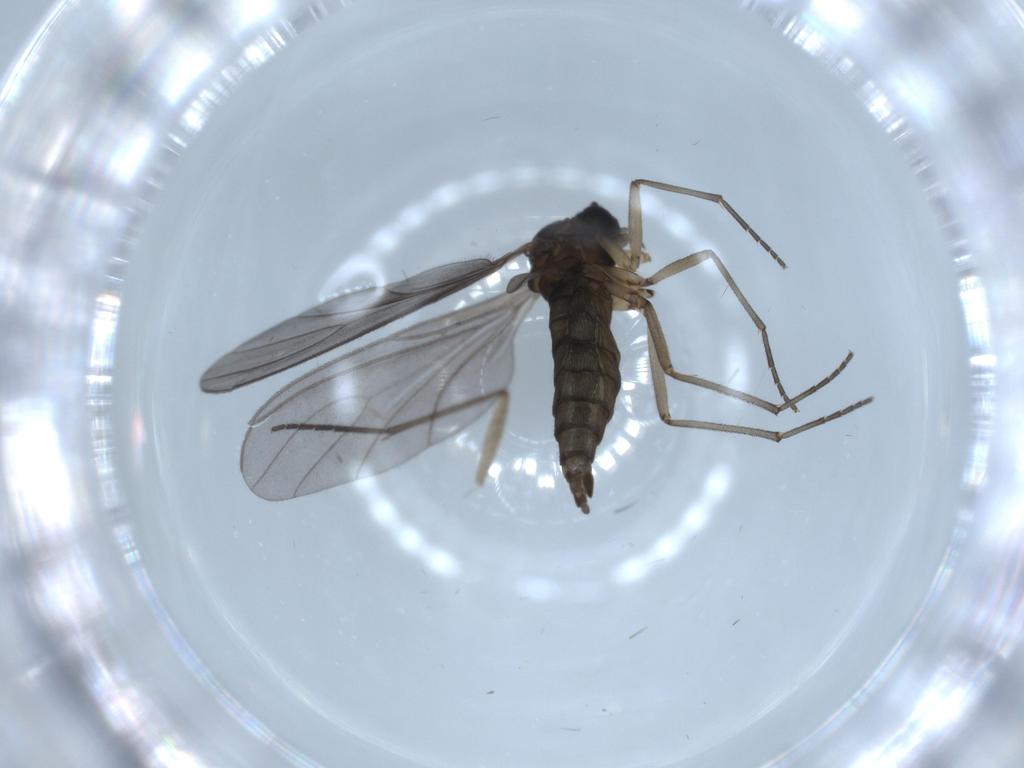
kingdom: Animalia
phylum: Arthropoda
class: Insecta
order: Diptera
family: Sciaridae
